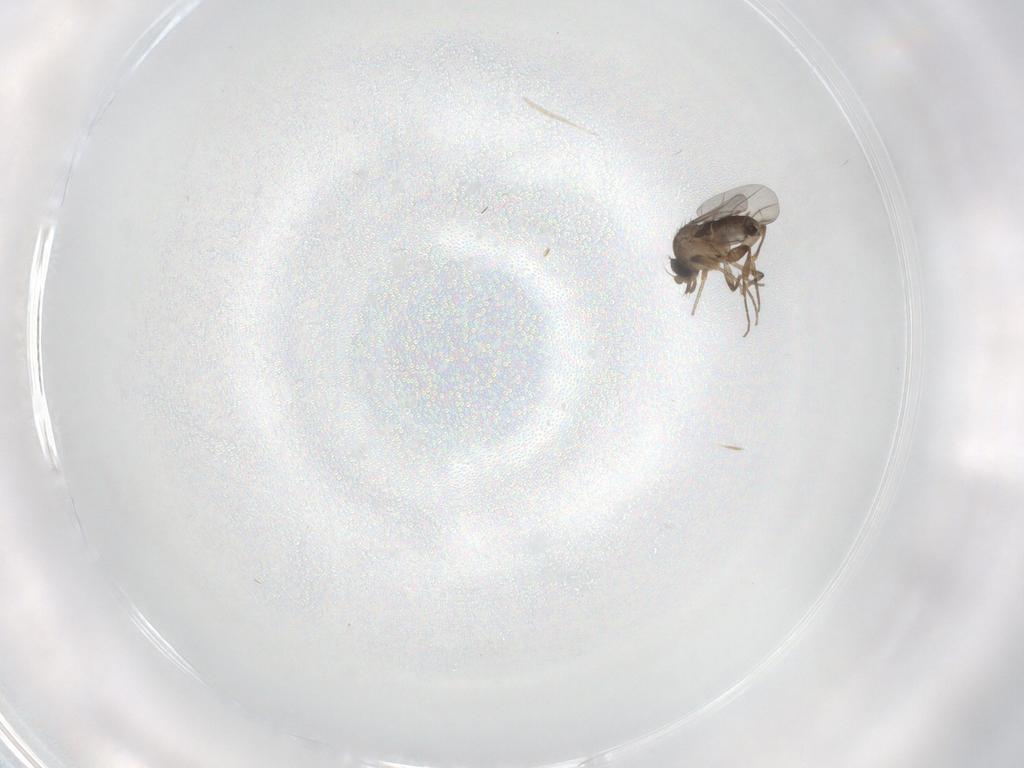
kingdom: Animalia
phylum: Arthropoda
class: Insecta
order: Diptera
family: Phoridae
